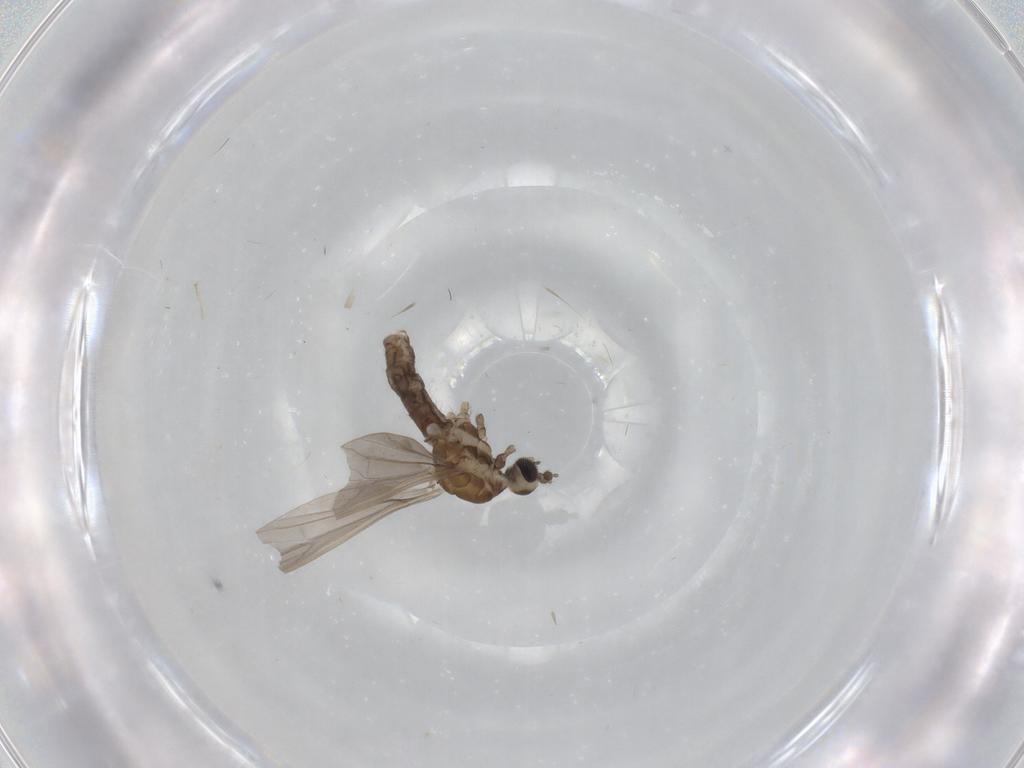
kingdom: Animalia
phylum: Arthropoda
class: Insecta
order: Diptera
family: Limoniidae
